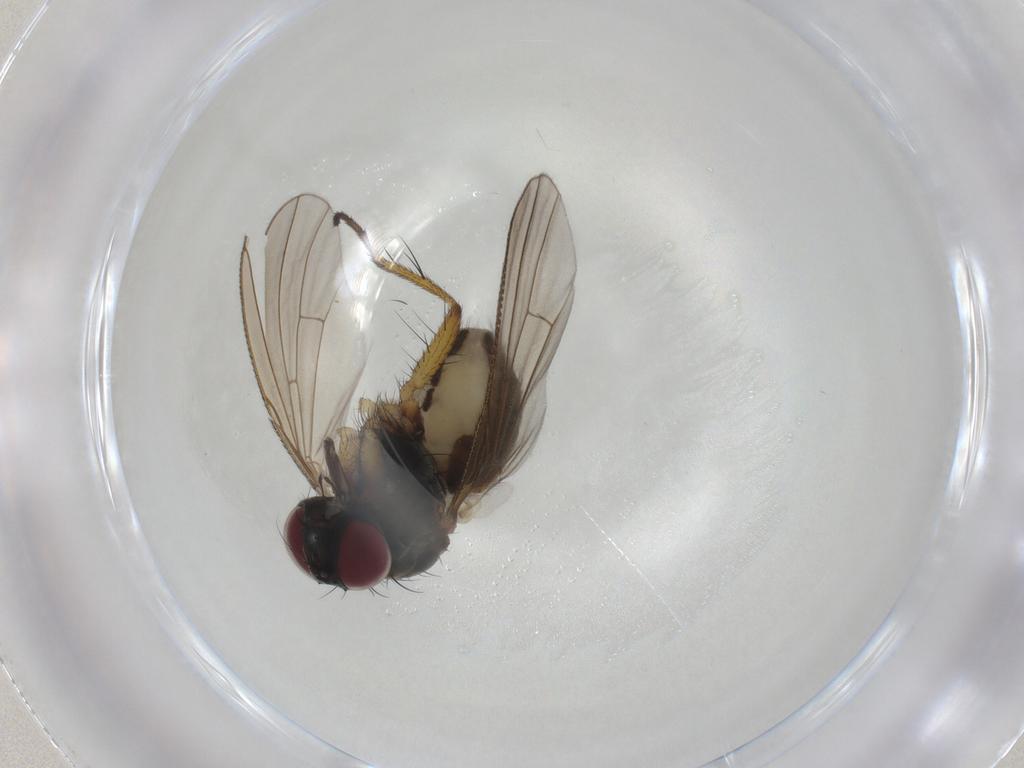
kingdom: Animalia
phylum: Arthropoda
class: Insecta
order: Diptera
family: Muscidae
